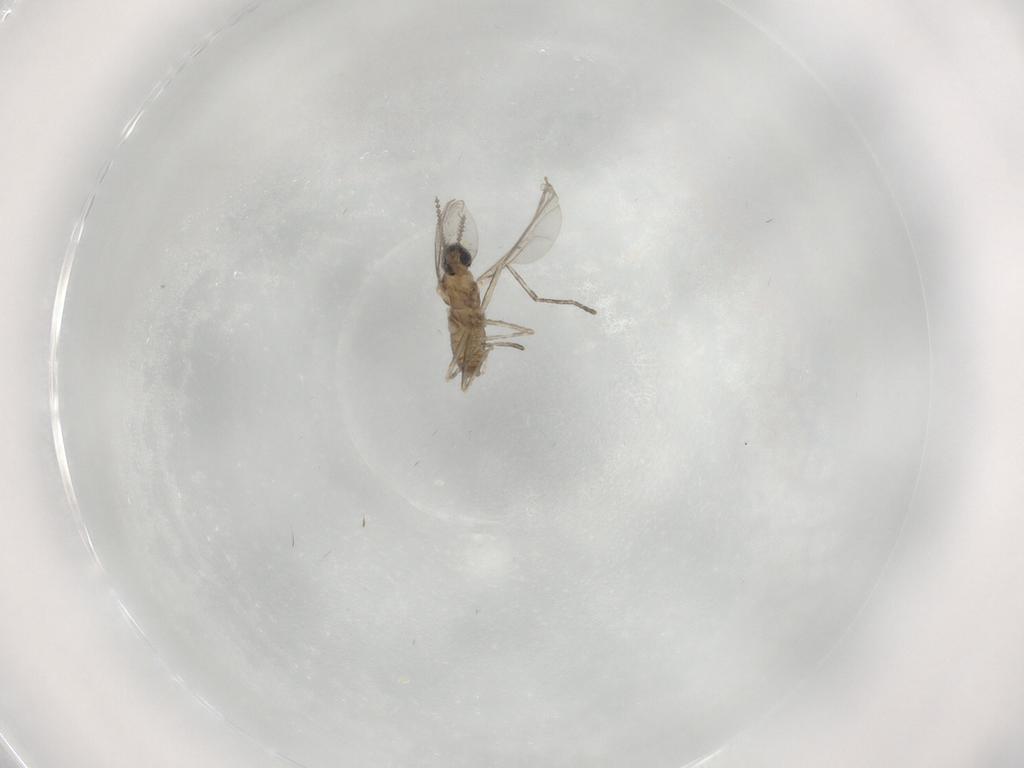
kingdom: Animalia
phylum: Arthropoda
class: Insecta
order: Diptera
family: Cecidomyiidae
